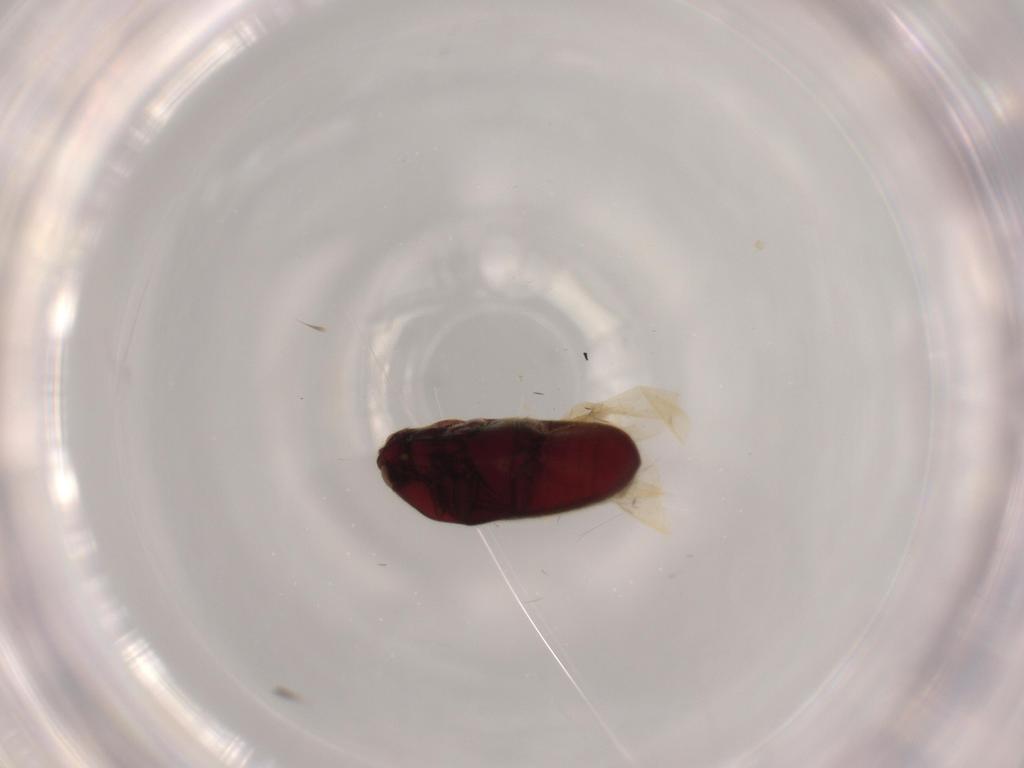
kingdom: Animalia
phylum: Arthropoda
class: Insecta
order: Coleoptera
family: Throscidae
